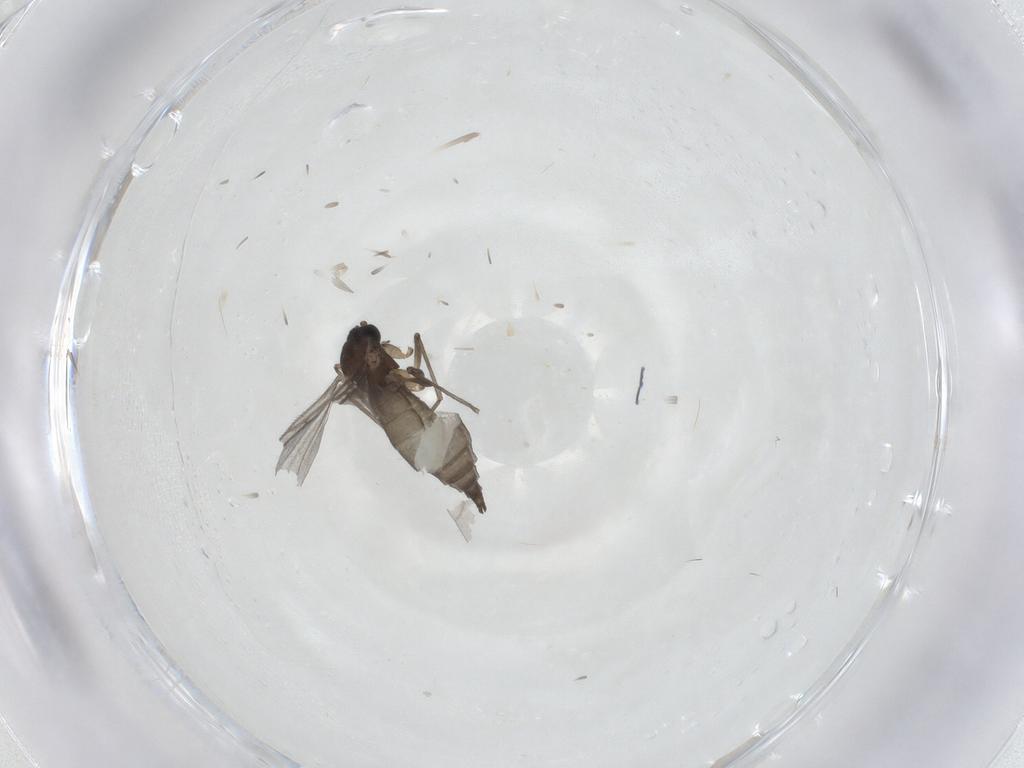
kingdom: Animalia
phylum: Arthropoda
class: Insecta
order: Diptera
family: Sciaridae
